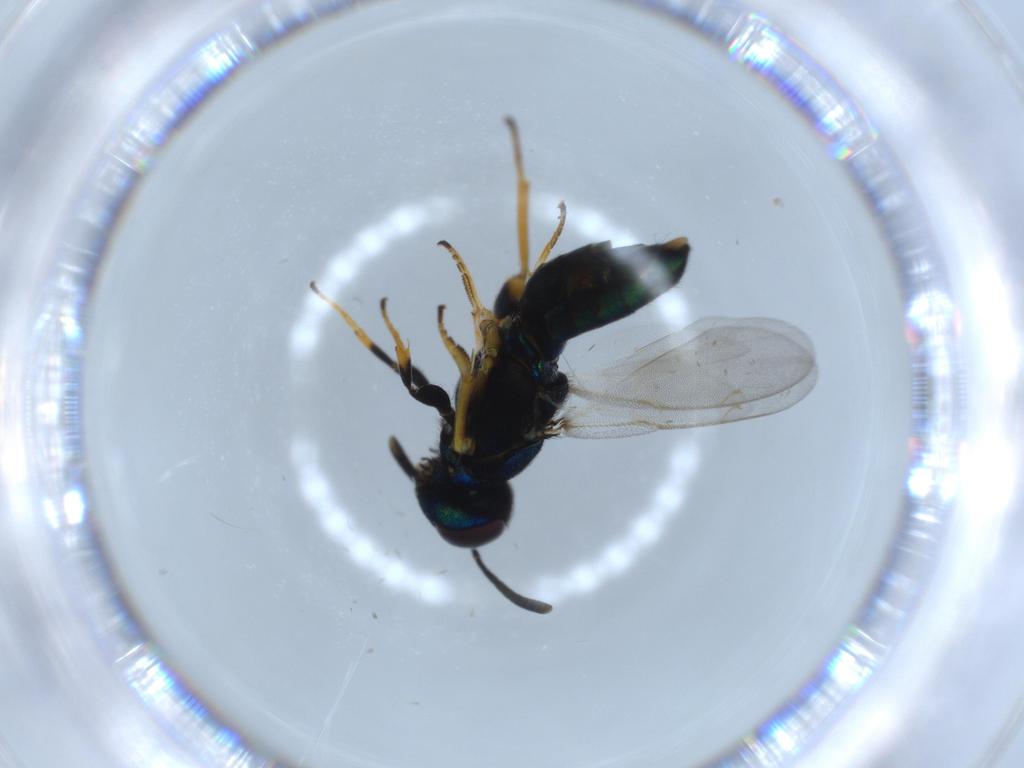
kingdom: Animalia
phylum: Arthropoda
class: Insecta
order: Hymenoptera
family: Eupelmidae
